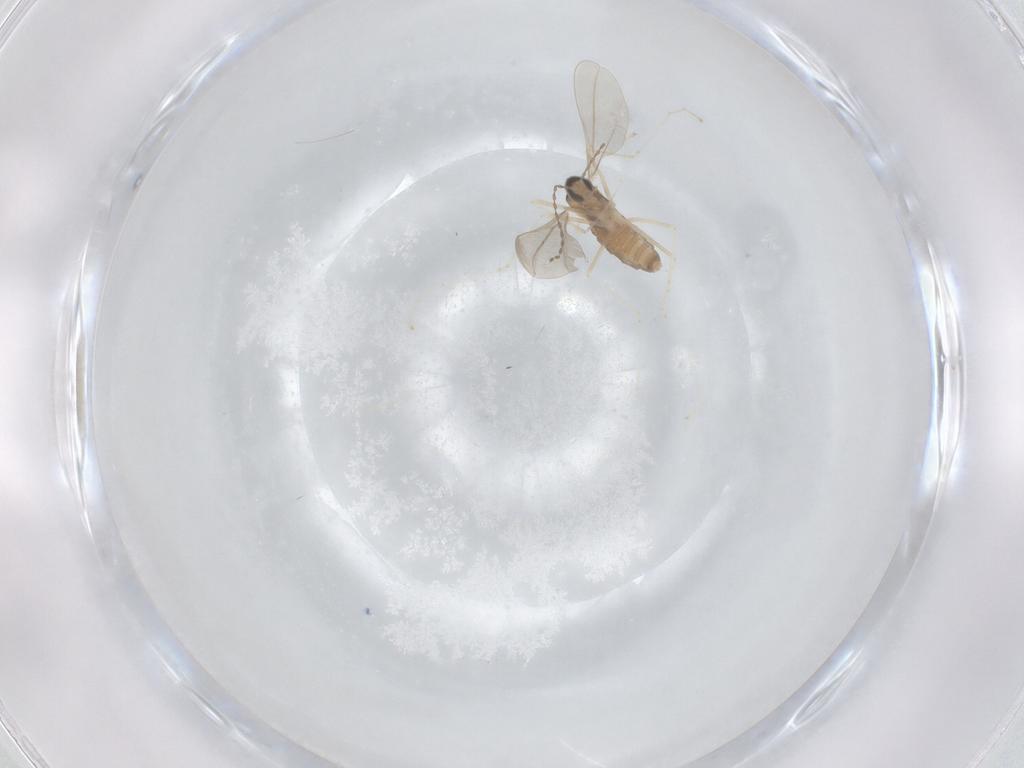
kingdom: Animalia
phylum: Arthropoda
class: Insecta
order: Diptera
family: Cecidomyiidae
